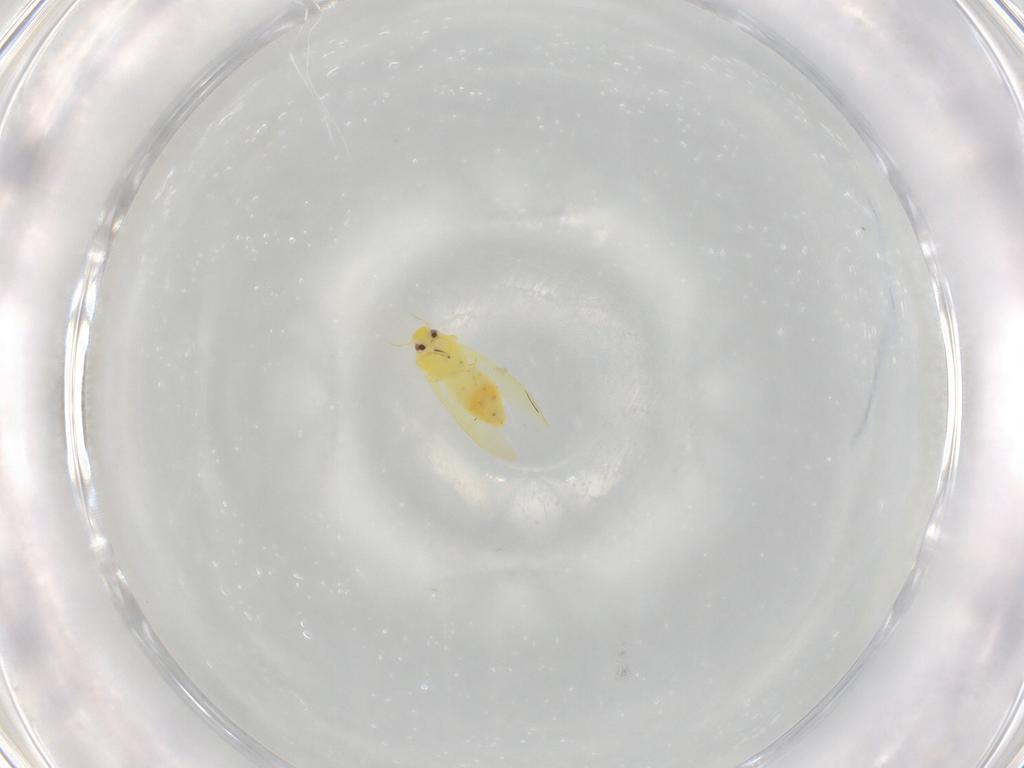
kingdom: Animalia
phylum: Arthropoda
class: Insecta
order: Hemiptera
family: Aleyrodidae
